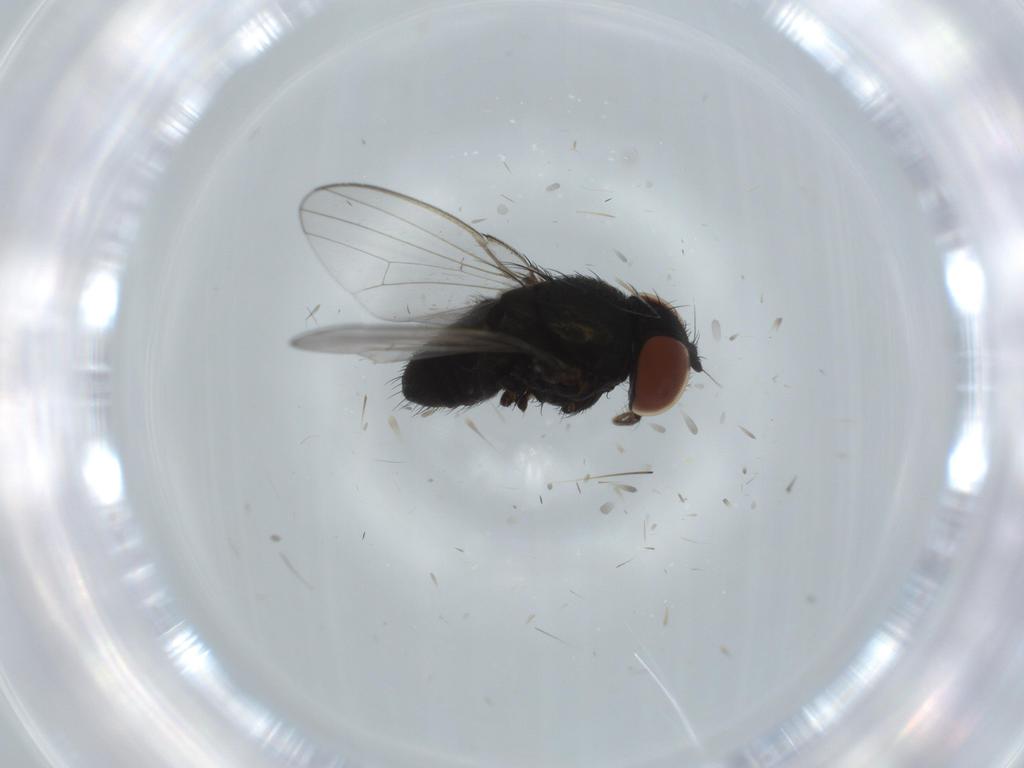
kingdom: Animalia
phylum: Arthropoda
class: Insecta
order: Diptera
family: Milichiidae
